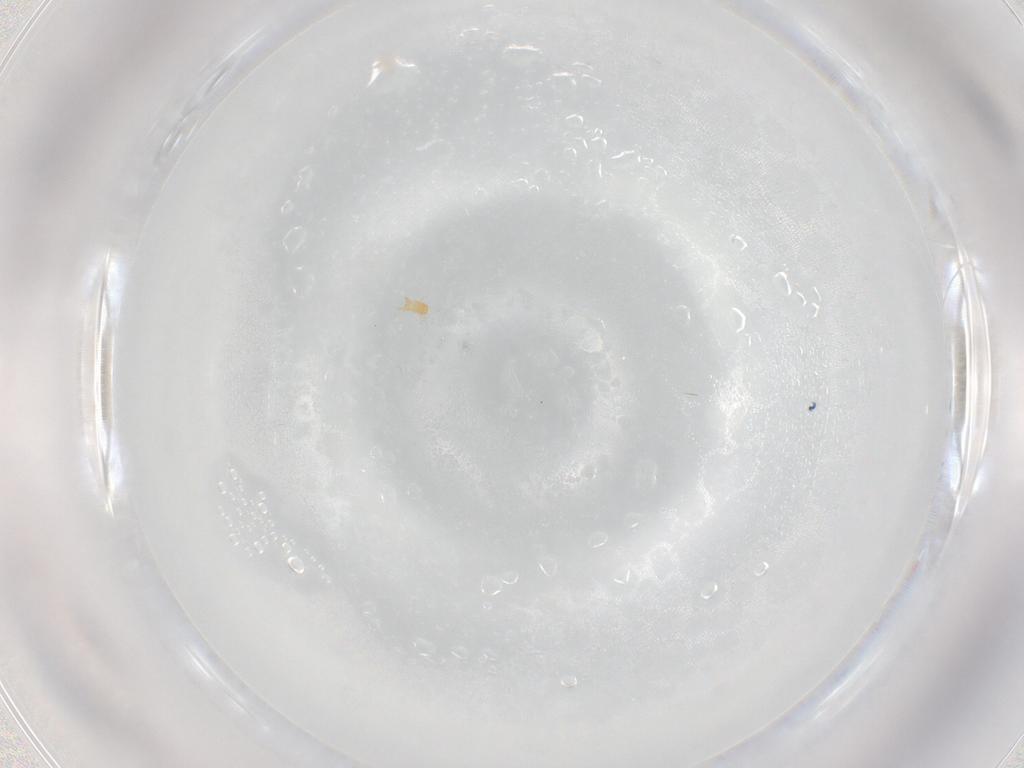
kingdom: Animalia
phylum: Arthropoda
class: Arachnida
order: Trombidiformes
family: Pygmephoridae
